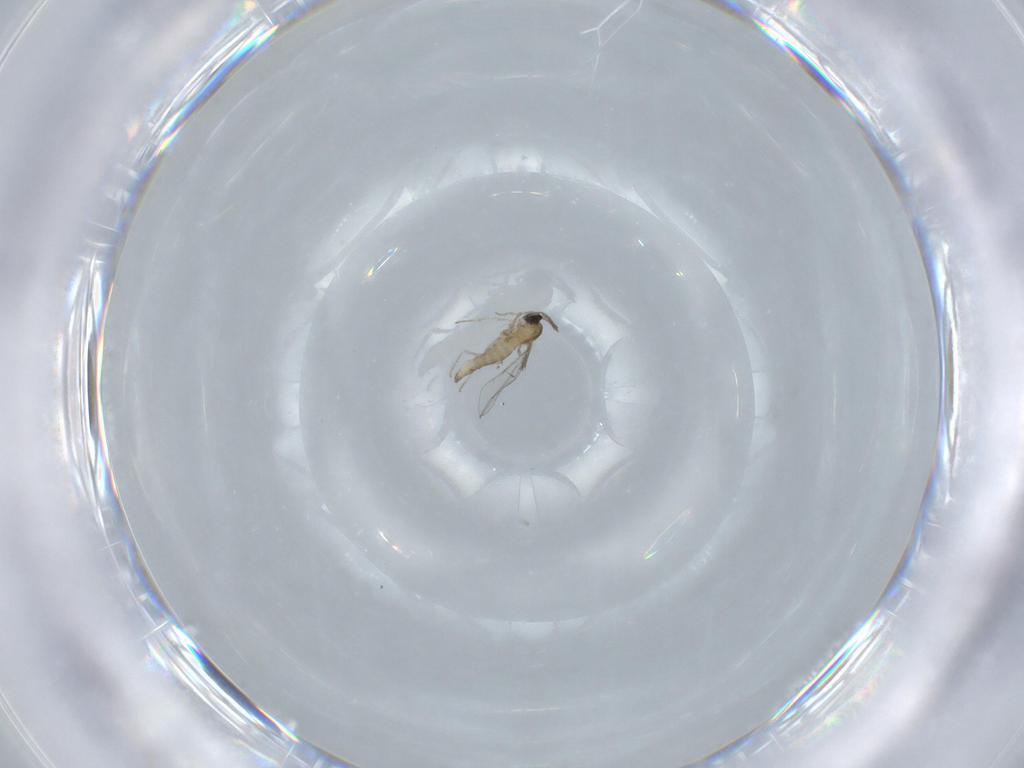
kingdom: Animalia
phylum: Arthropoda
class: Insecta
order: Diptera
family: Cecidomyiidae
